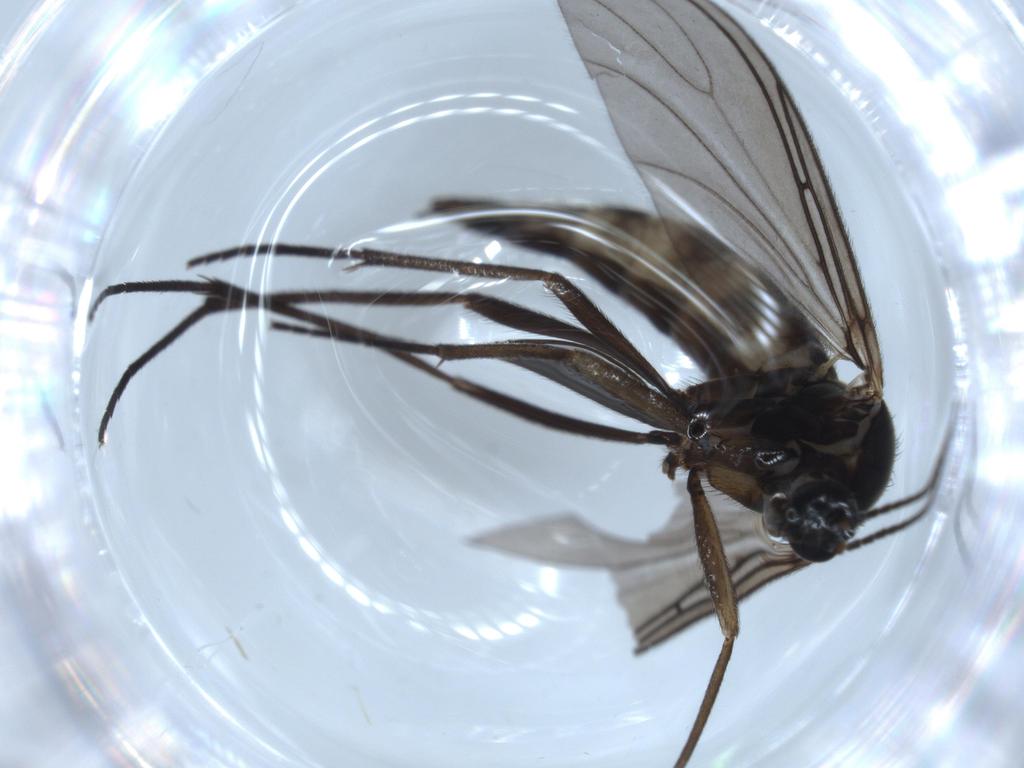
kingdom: Animalia
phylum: Arthropoda
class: Insecta
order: Diptera
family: Sciaridae
